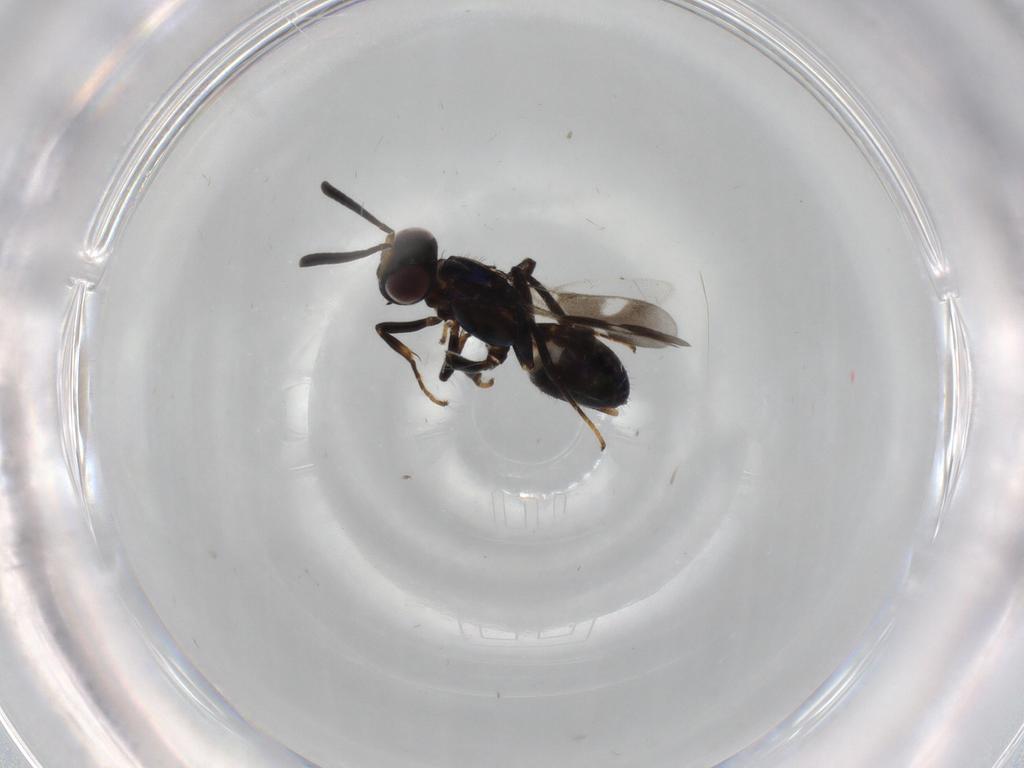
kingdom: Animalia
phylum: Arthropoda
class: Insecta
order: Hymenoptera
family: Eupelmidae
